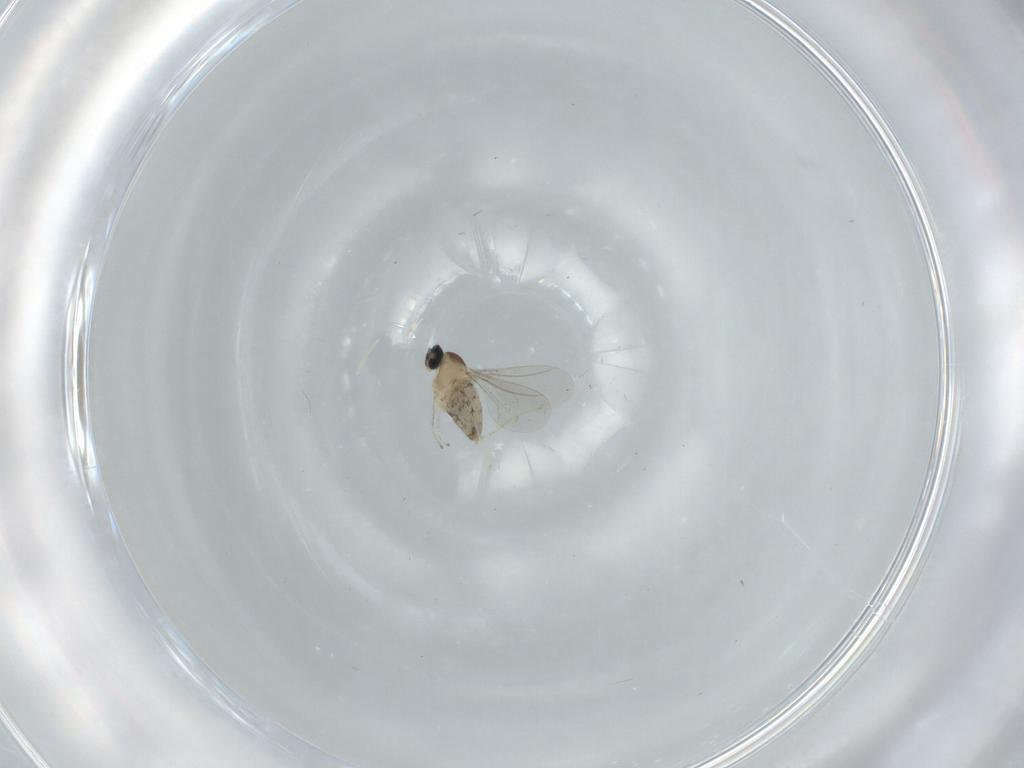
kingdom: Animalia
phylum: Arthropoda
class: Insecta
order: Diptera
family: Cecidomyiidae
